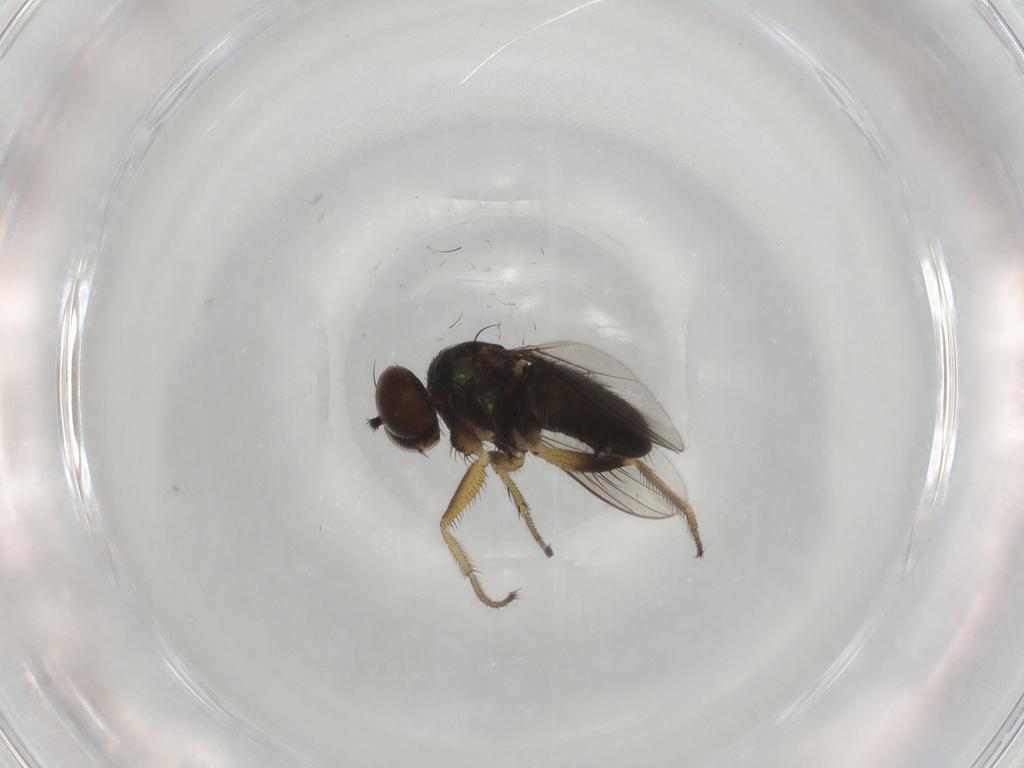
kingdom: Animalia
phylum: Arthropoda
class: Insecta
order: Diptera
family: Dolichopodidae
